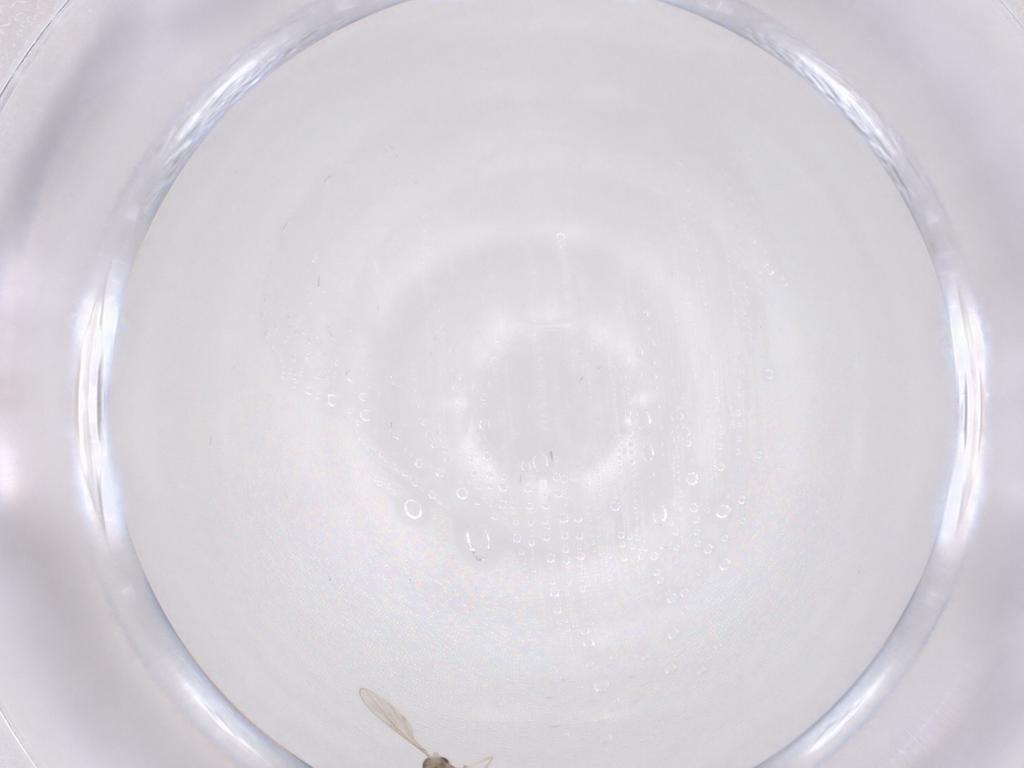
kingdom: Animalia
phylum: Arthropoda
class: Insecta
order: Diptera
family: Cecidomyiidae
